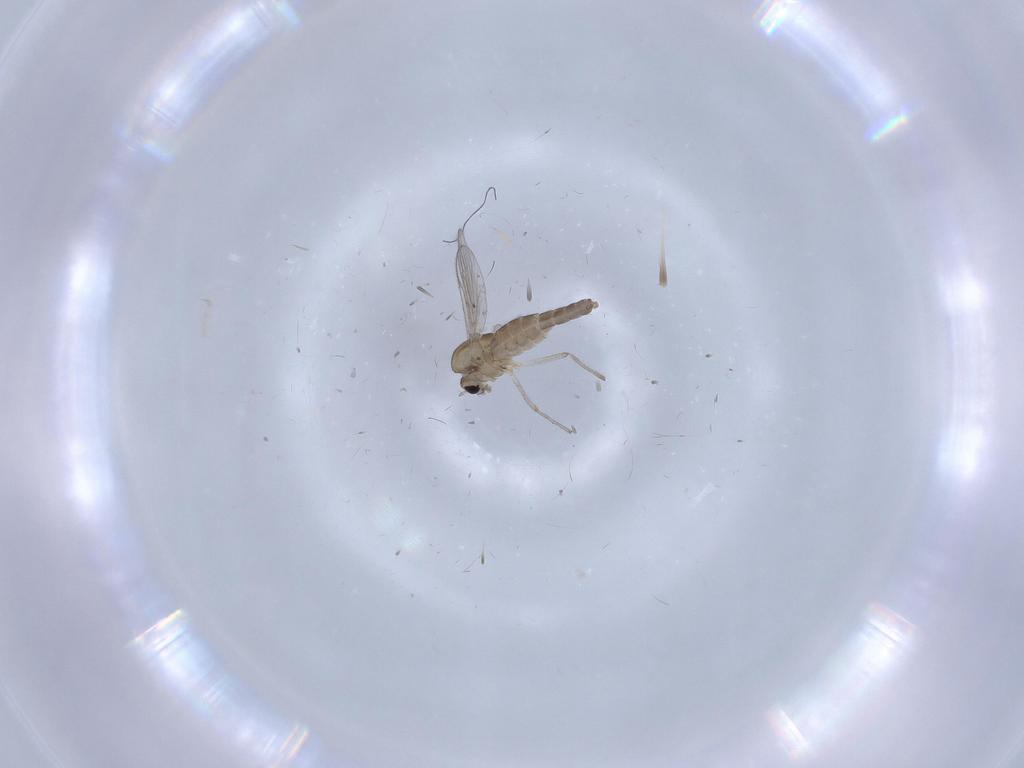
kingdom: Animalia
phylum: Arthropoda
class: Insecta
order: Diptera
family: Chironomidae
